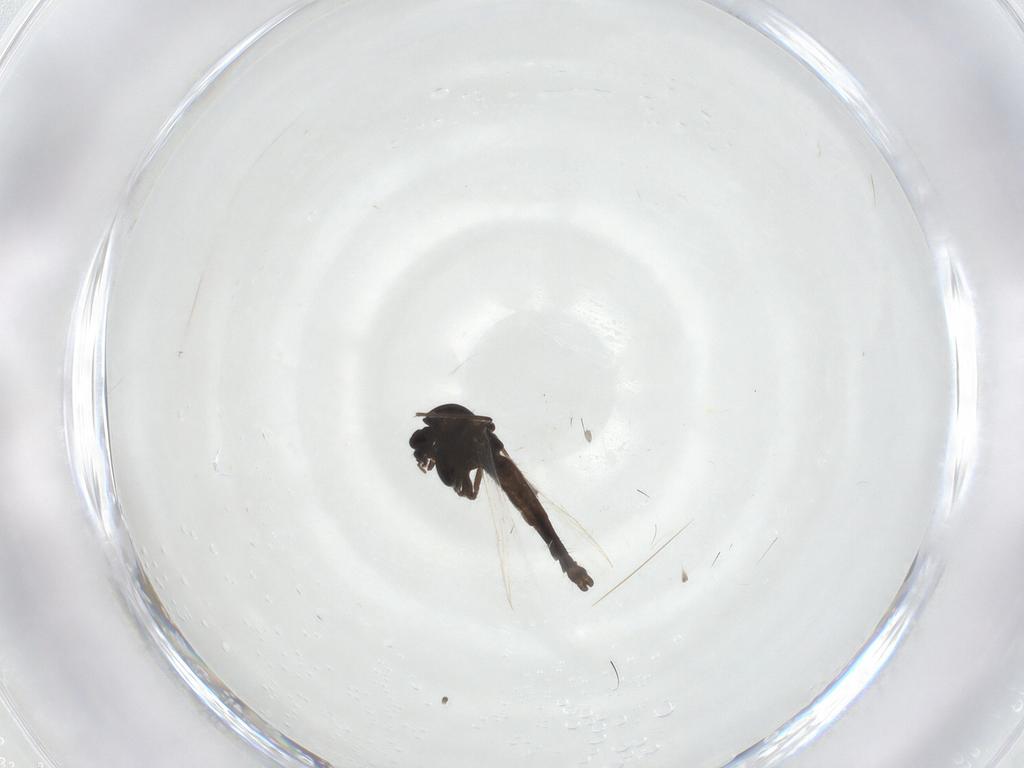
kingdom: Animalia
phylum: Arthropoda
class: Insecta
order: Diptera
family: Chironomidae
